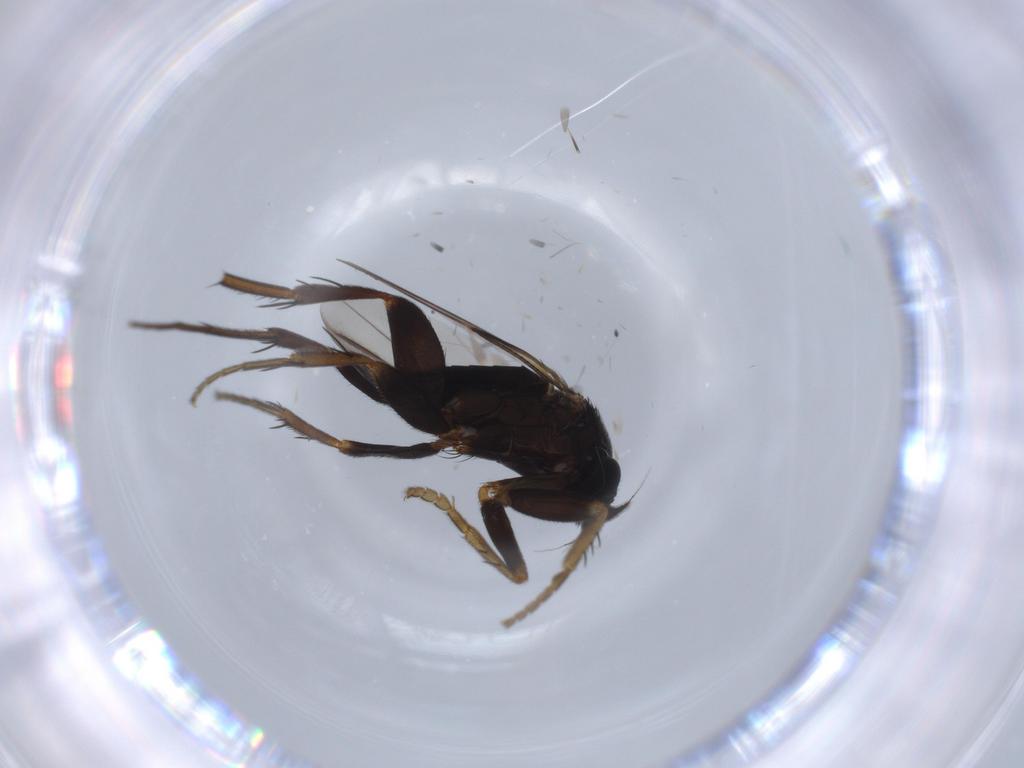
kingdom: Animalia
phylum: Arthropoda
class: Insecta
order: Diptera
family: Phoridae
